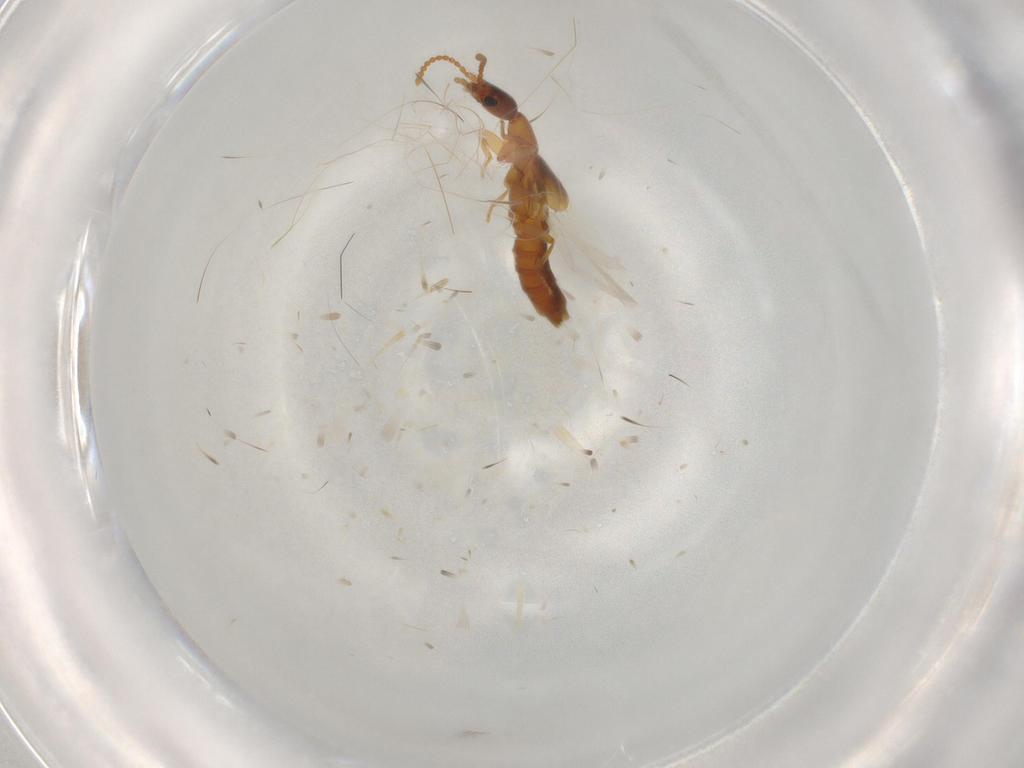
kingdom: Animalia
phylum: Arthropoda
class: Insecta
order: Coleoptera
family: Staphylinidae
